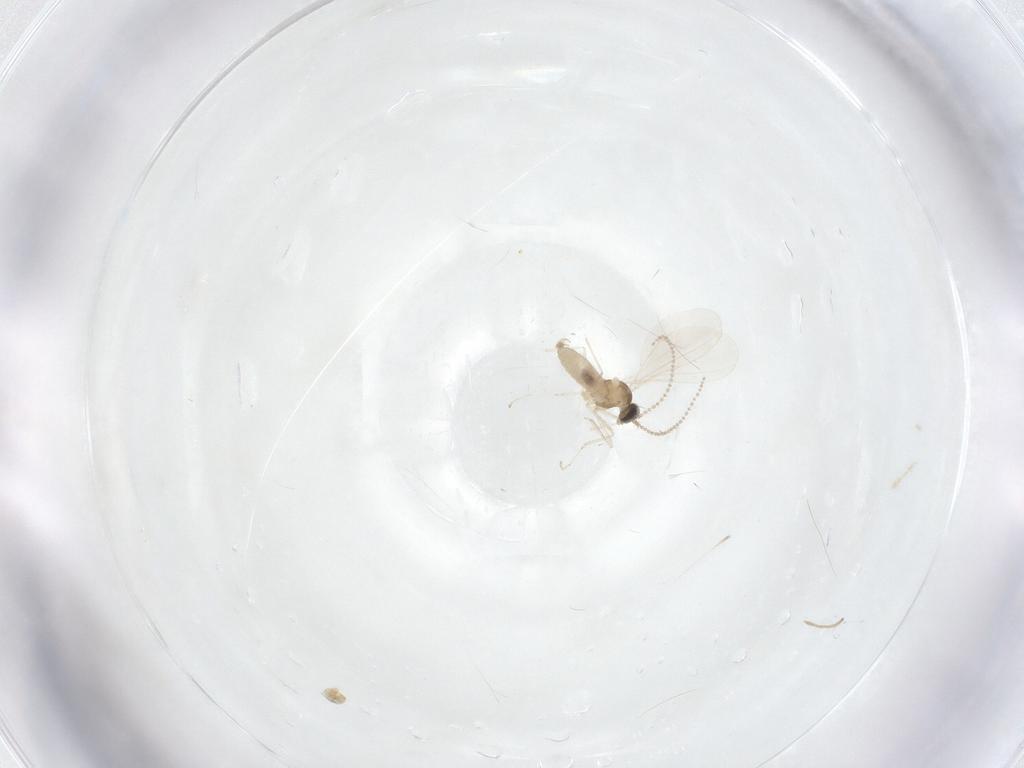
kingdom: Animalia
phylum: Arthropoda
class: Insecta
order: Diptera
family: Cecidomyiidae
